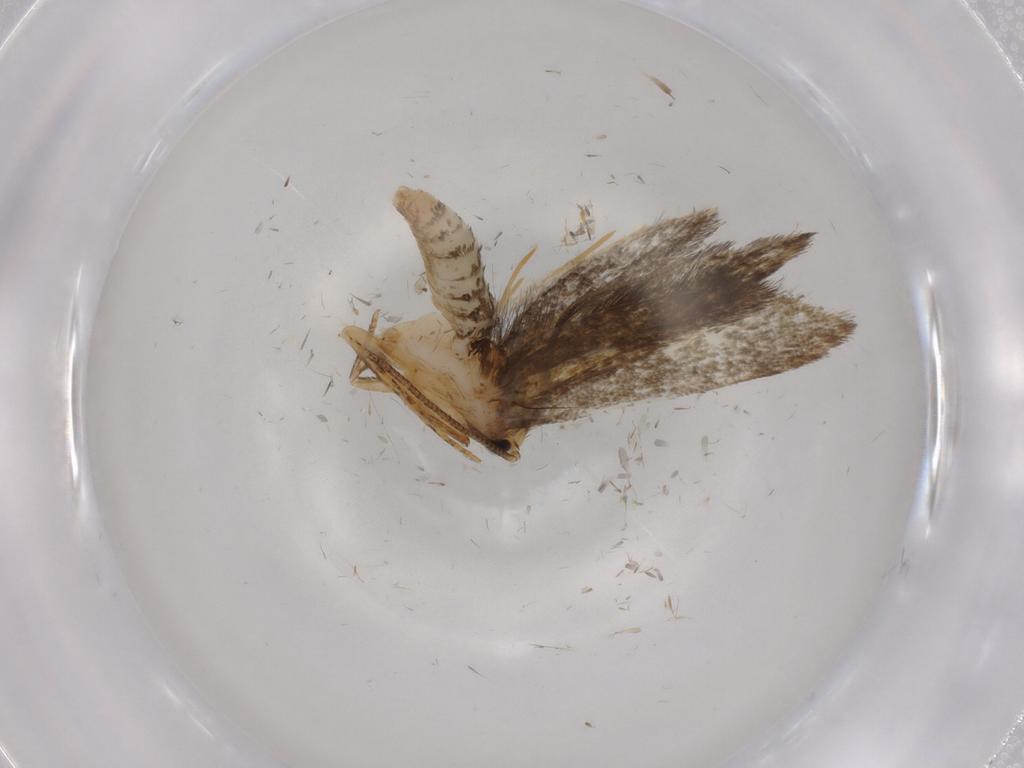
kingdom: Animalia
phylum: Arthropoda
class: Insecta
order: Lepidoptera
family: Tineidae
